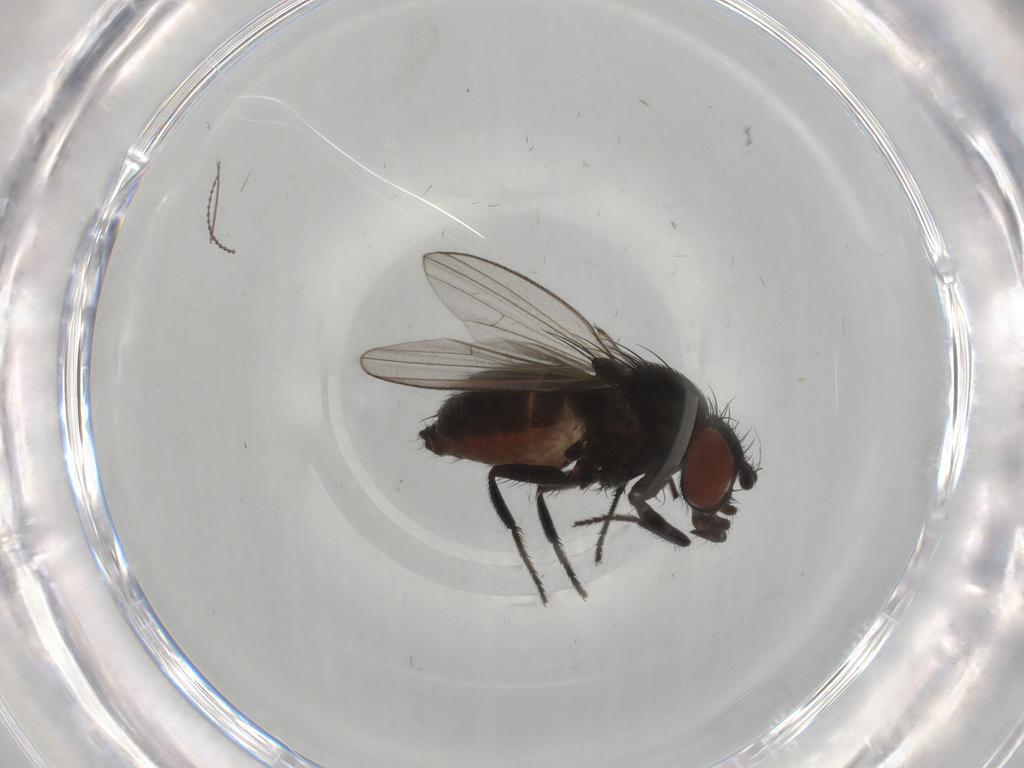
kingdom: Animalia
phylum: Arthropoda
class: Insecta
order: Diptera
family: Milichiidae
